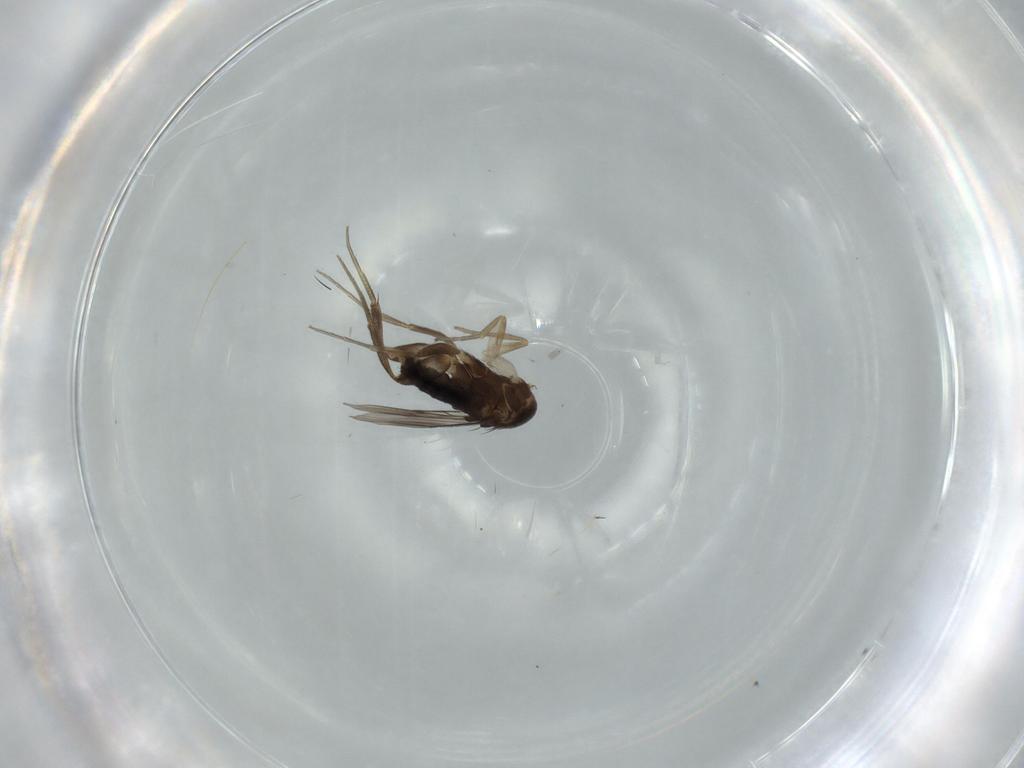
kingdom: Animalia
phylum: Arthropoda
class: Insecta
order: Diptera
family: Phoridae
